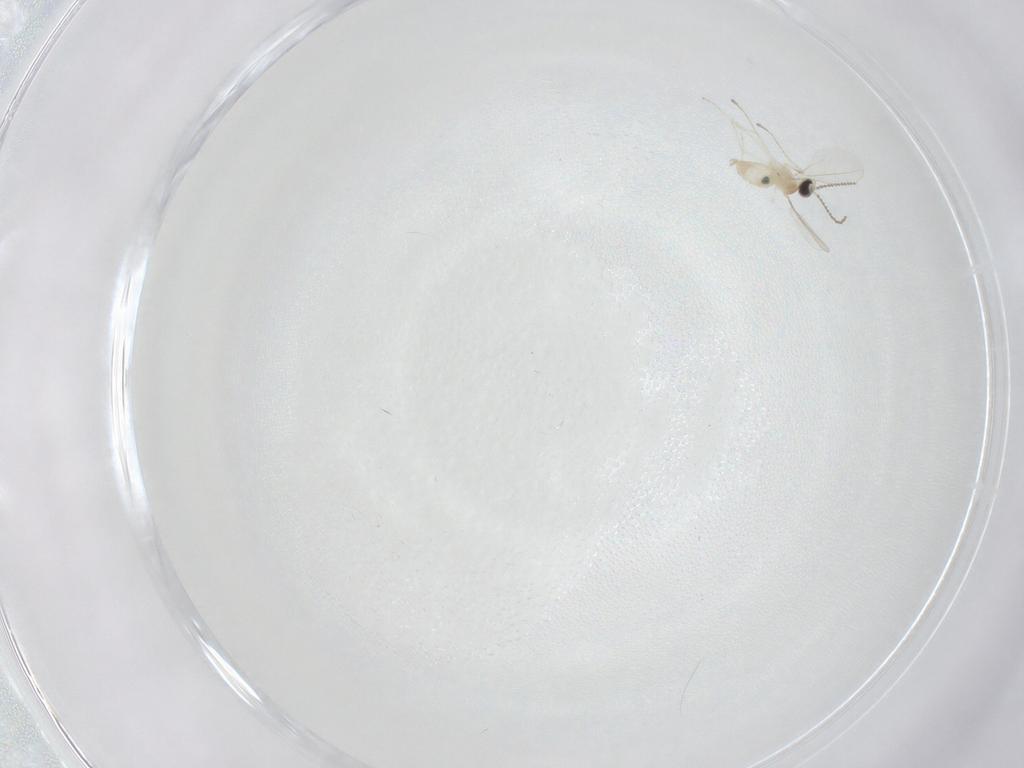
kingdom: Animalia
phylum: Arthropoda
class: Insecta
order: Diptera
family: Cecidomyiidae
